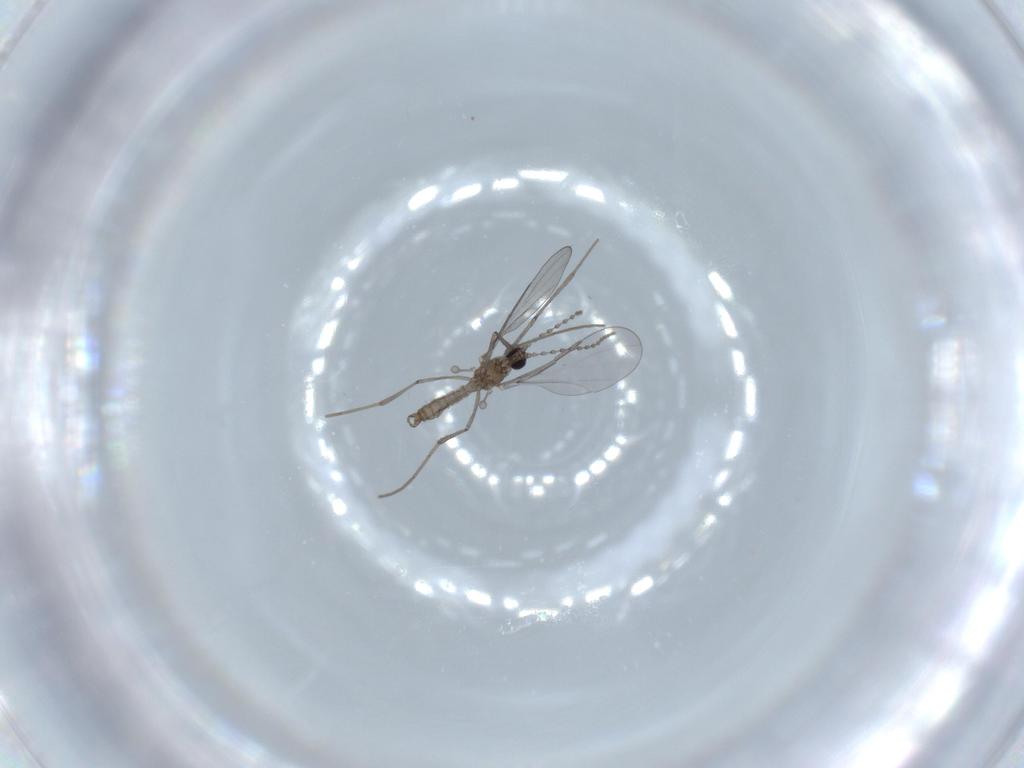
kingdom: Animalia
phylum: Arthropoda
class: Insecta
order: Diptera
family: Cecidomyiidae
